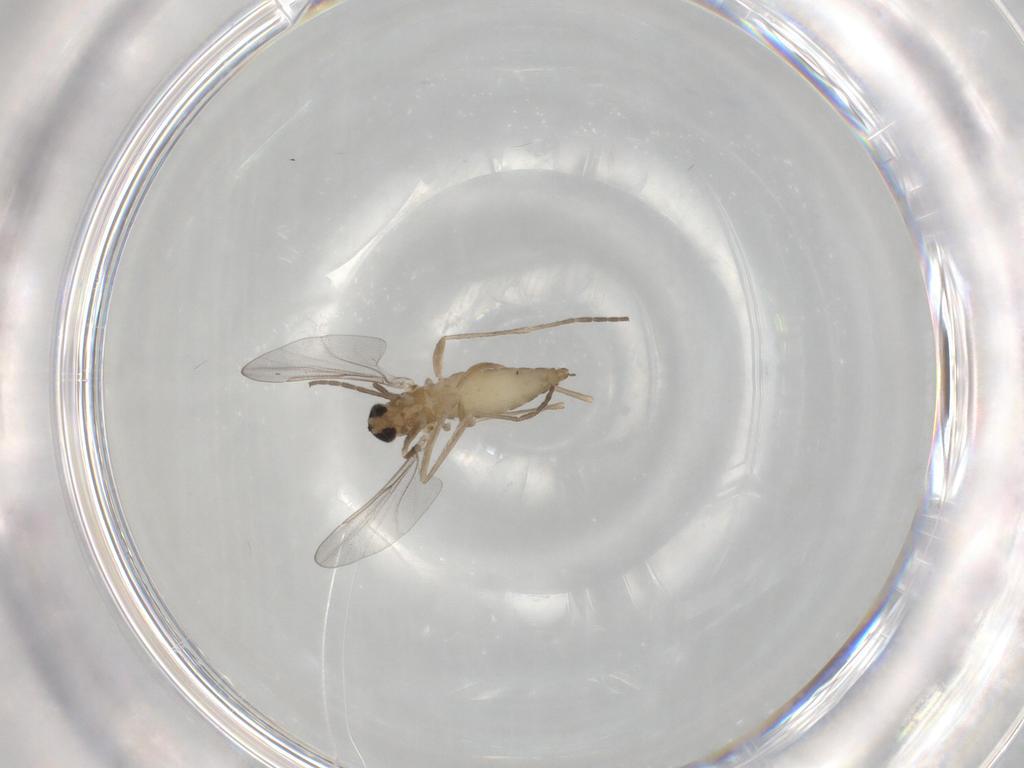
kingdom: Animalia
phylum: Arthropoda
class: Insecta
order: Diptera
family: Cecidomyiidae
